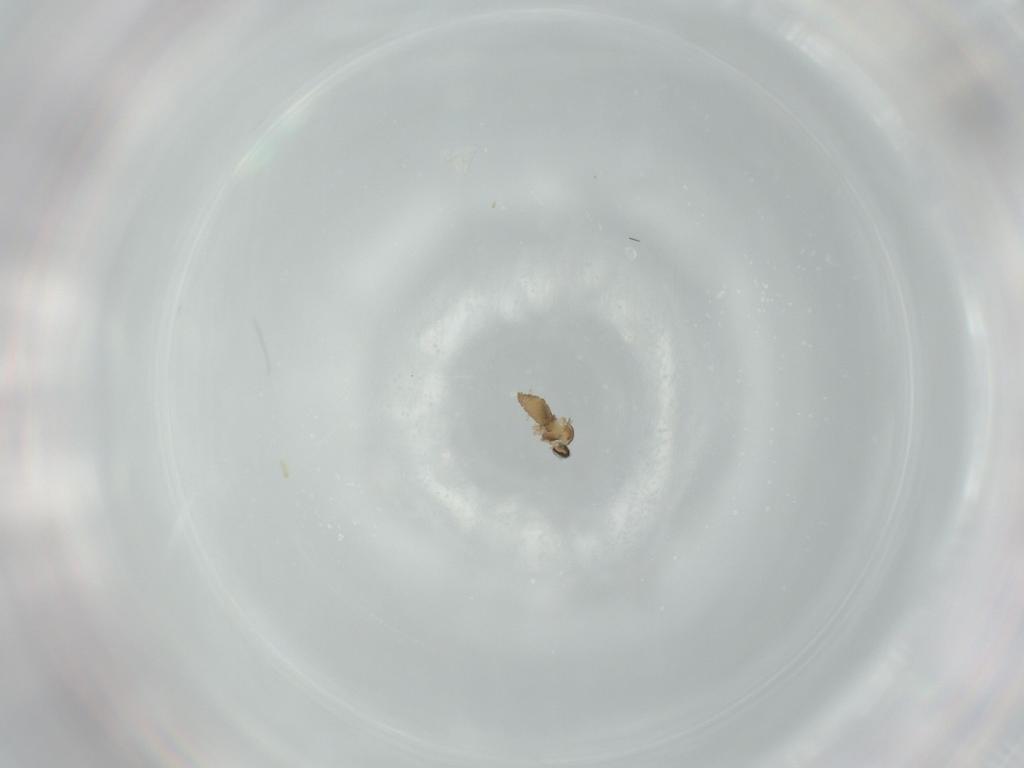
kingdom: Animalia
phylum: Arthropoda
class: Insecta
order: Diptera
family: Cecidomyiidae
